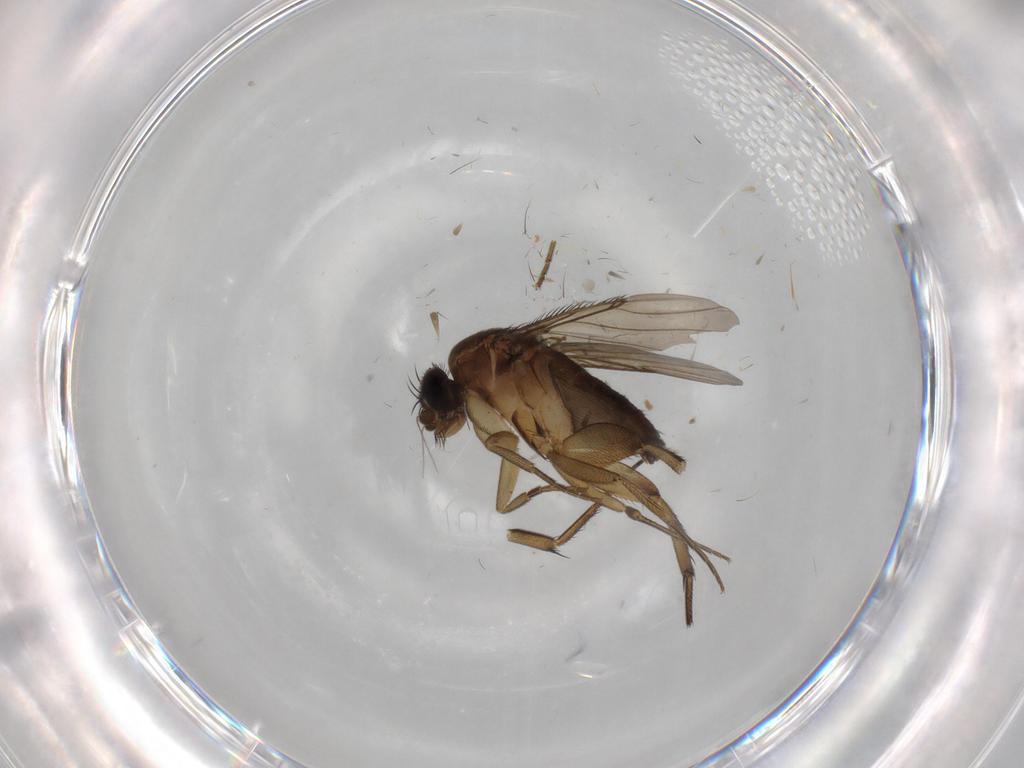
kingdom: Animalia
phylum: Arthropoda
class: Insecta
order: Diptera
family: Phoridae
